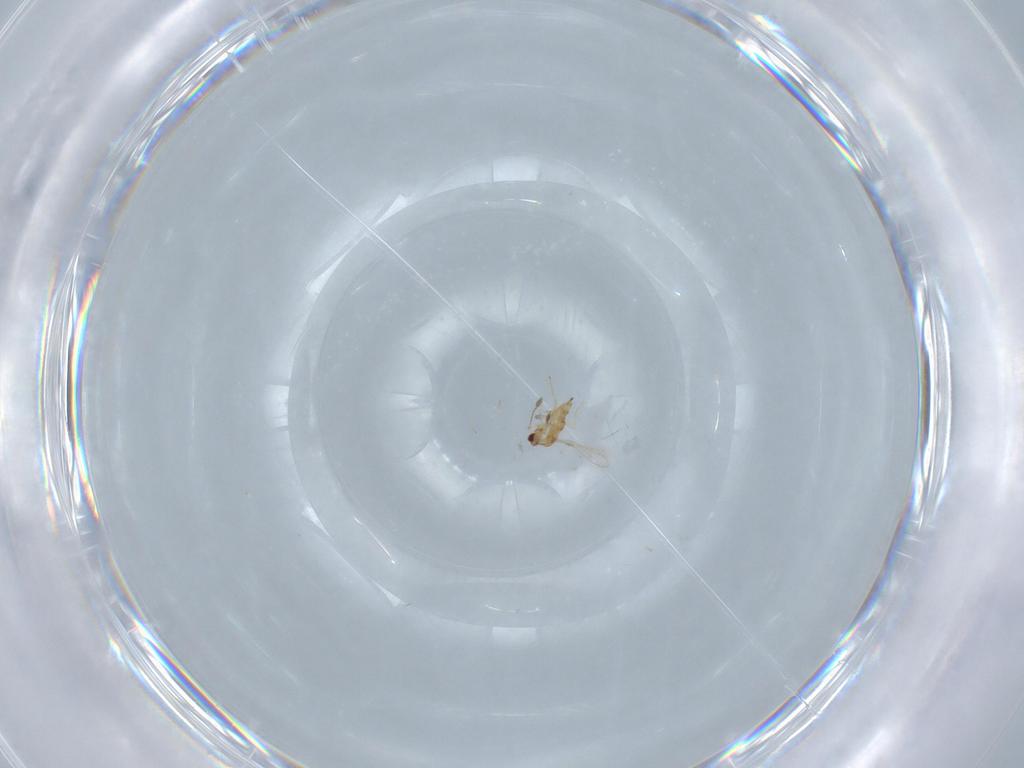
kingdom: Animalia
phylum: Arthropoda
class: Insecta
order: Hymenoptera
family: Mymaridae
